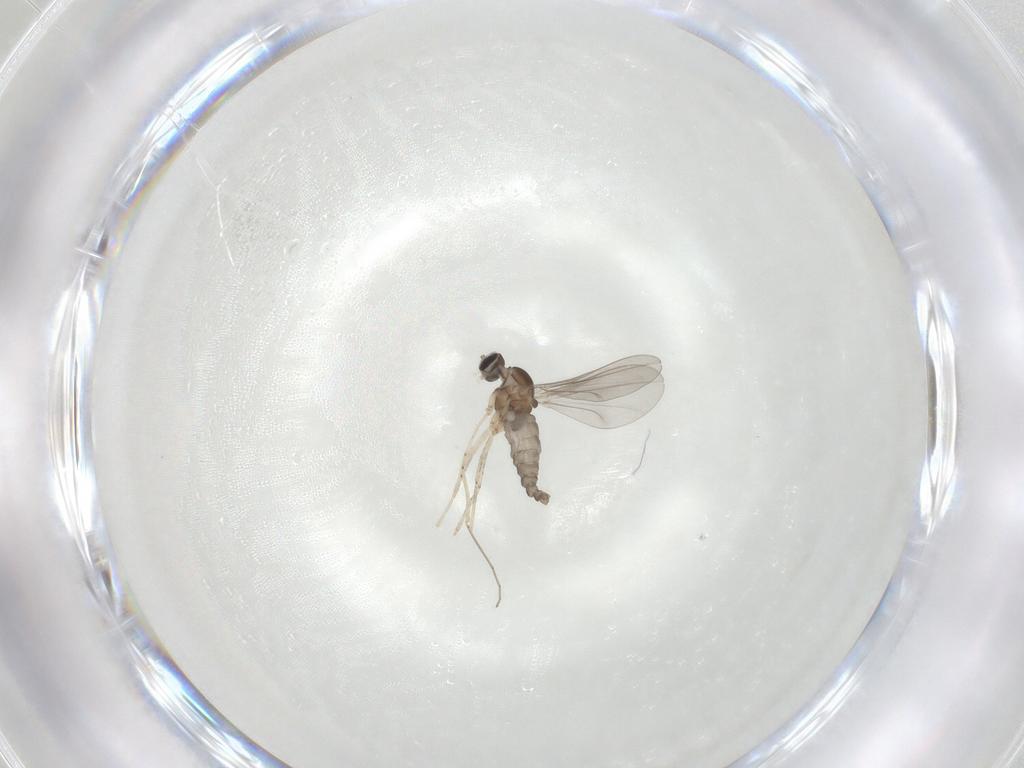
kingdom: Animalia
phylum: Arthropoda
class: Insecta
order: Diptera
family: Cecidomyiidae
